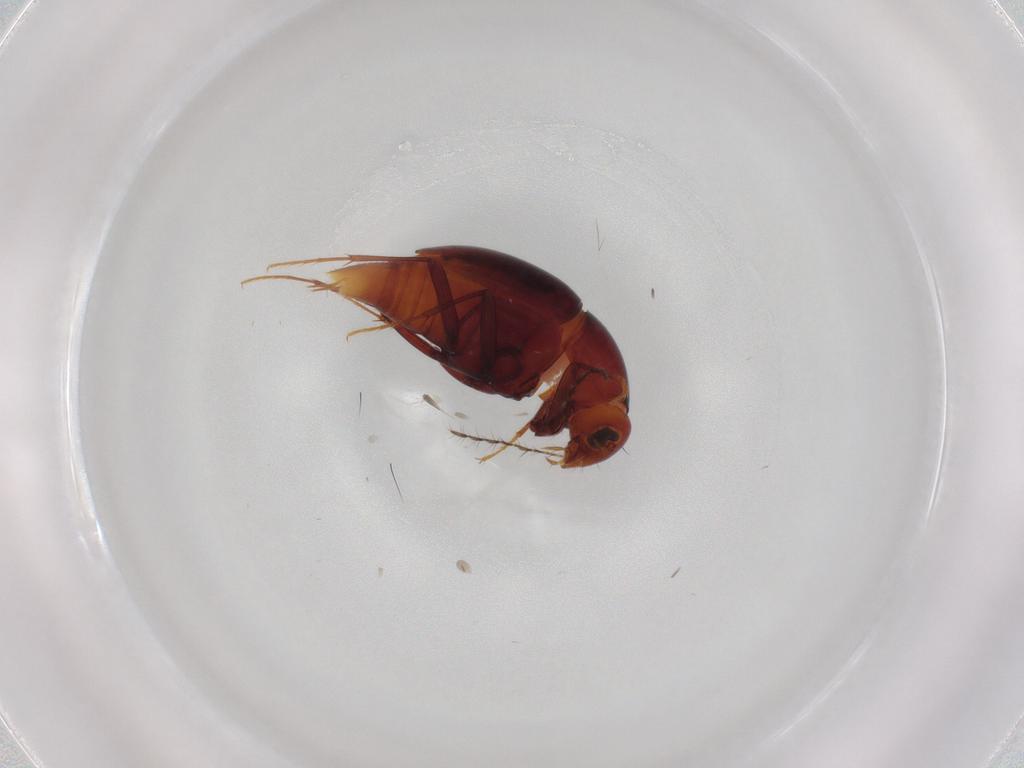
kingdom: Animalia
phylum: Arthropoda
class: Insecta
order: Coleoptera
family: Staphylinidae
